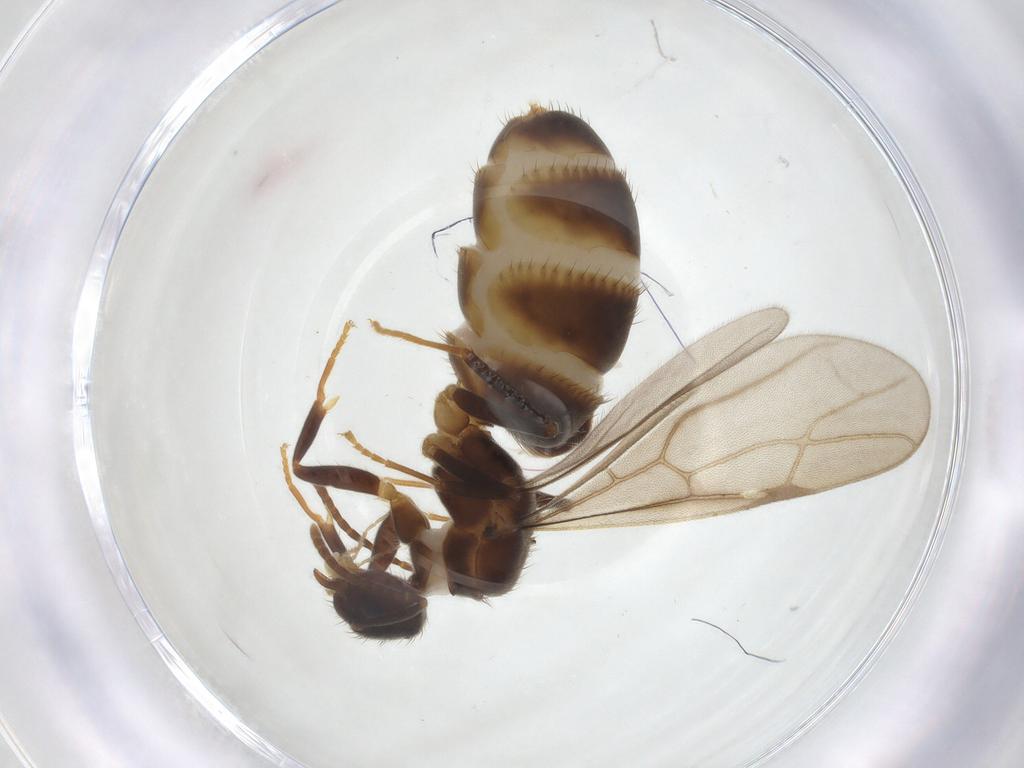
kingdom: Animalia
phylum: Arthropoda
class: Insecta
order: Hymenoptera
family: Formicidae
